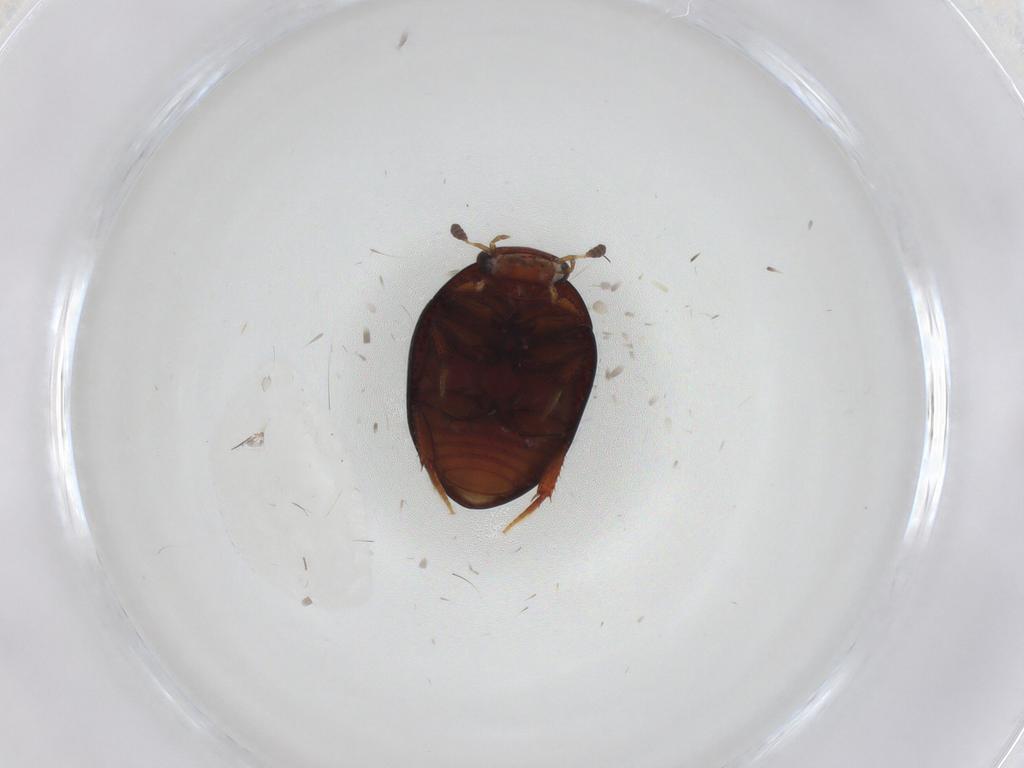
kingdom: Animalia
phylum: Arthropoda
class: Insecta
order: Coleoptera
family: Hydrophilidae
